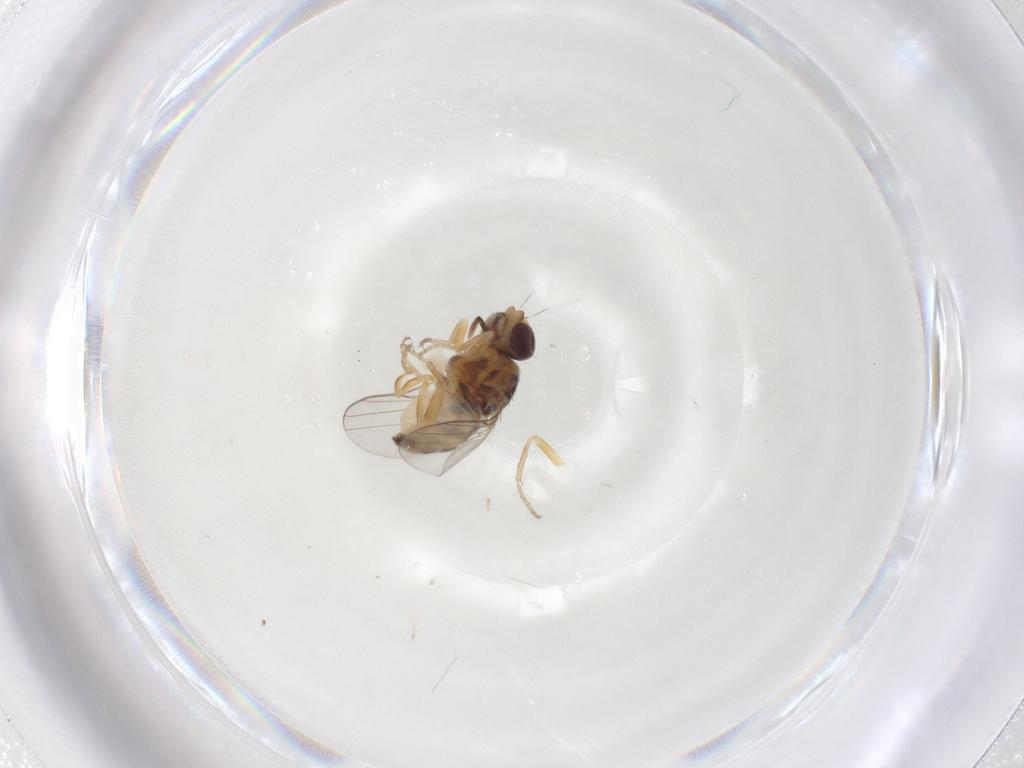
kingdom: Animalia
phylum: Arthropoda
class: Insecta
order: Diptera
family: Chloropidae
